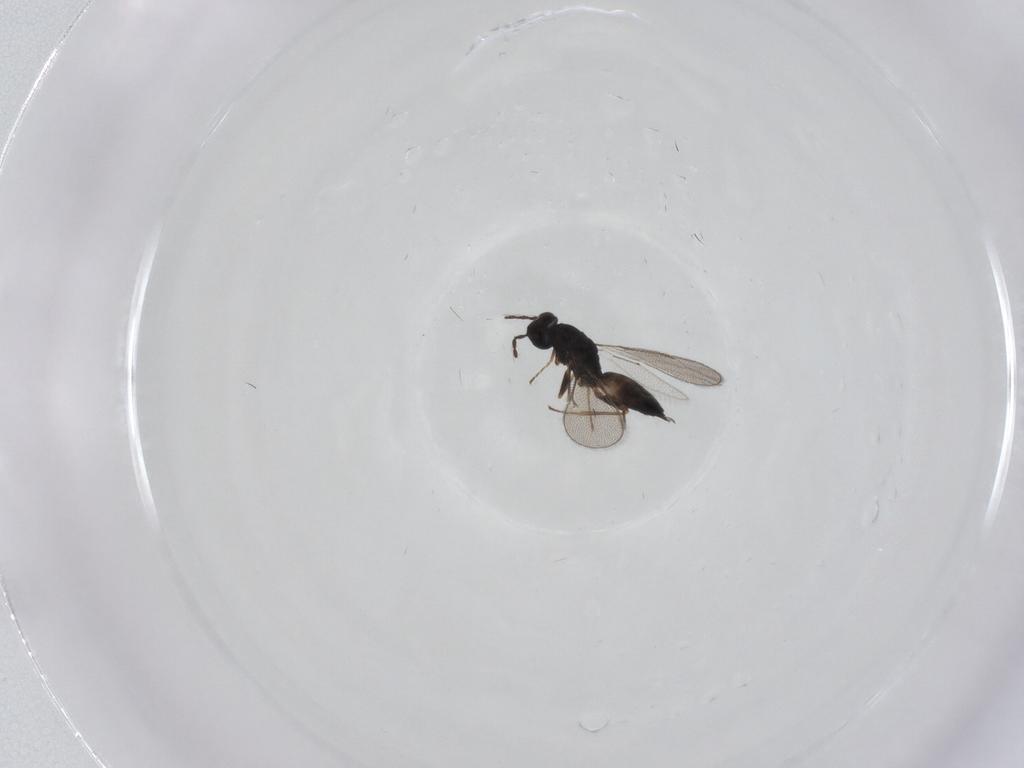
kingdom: Animalia
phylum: Arthropoda
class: Insecta
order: Hymenoptera
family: Eulophidae
